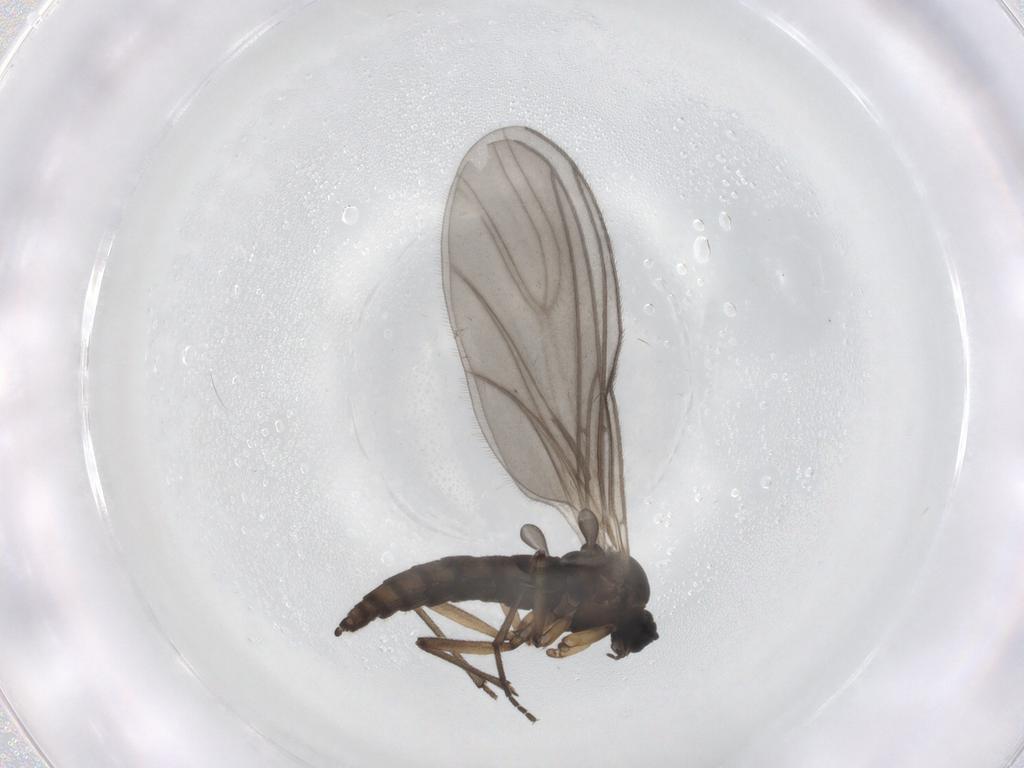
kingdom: Animalia
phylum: Arthropoda
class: Insecta
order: Diptera
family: Sciaridae
